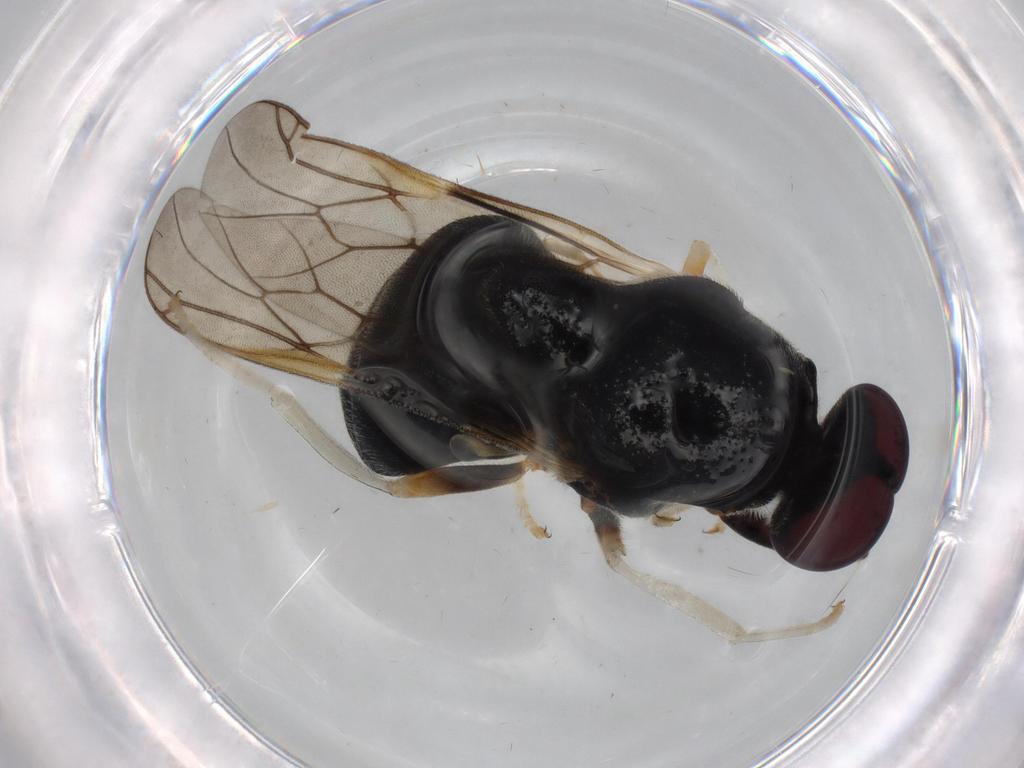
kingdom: Animalia
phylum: Arthropoda
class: Insecta
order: Diptera
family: Stratiomyidae
